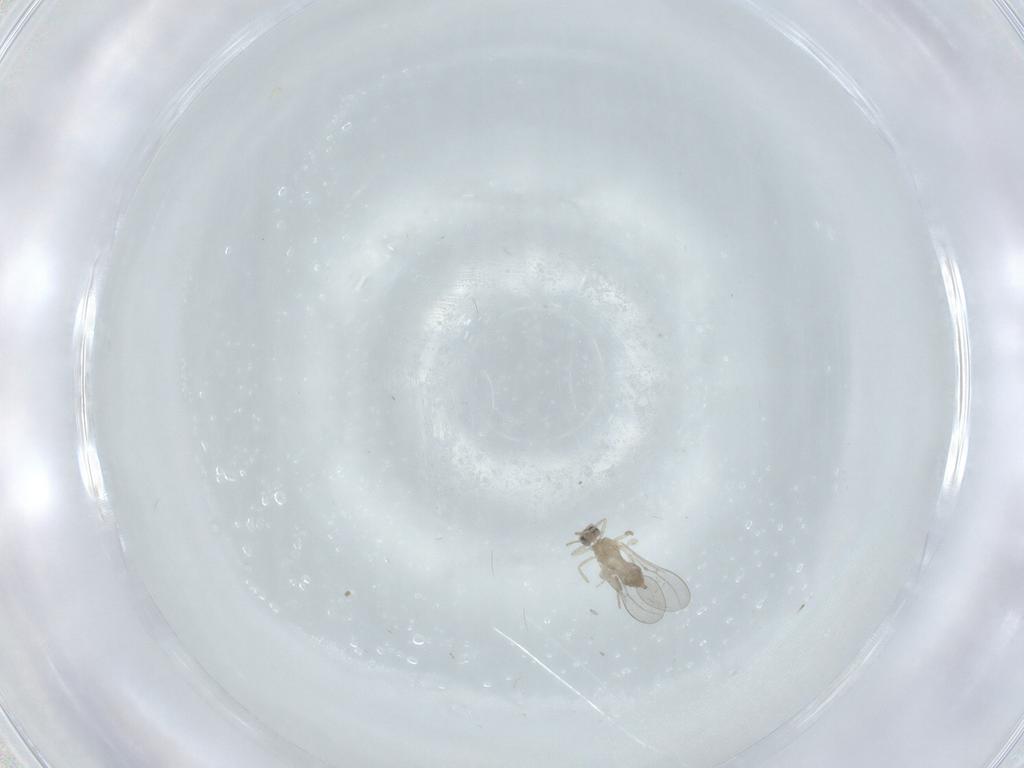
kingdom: Animalia
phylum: Arthropoda
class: Insecta
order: Diptera
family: Cecidomyiidae
